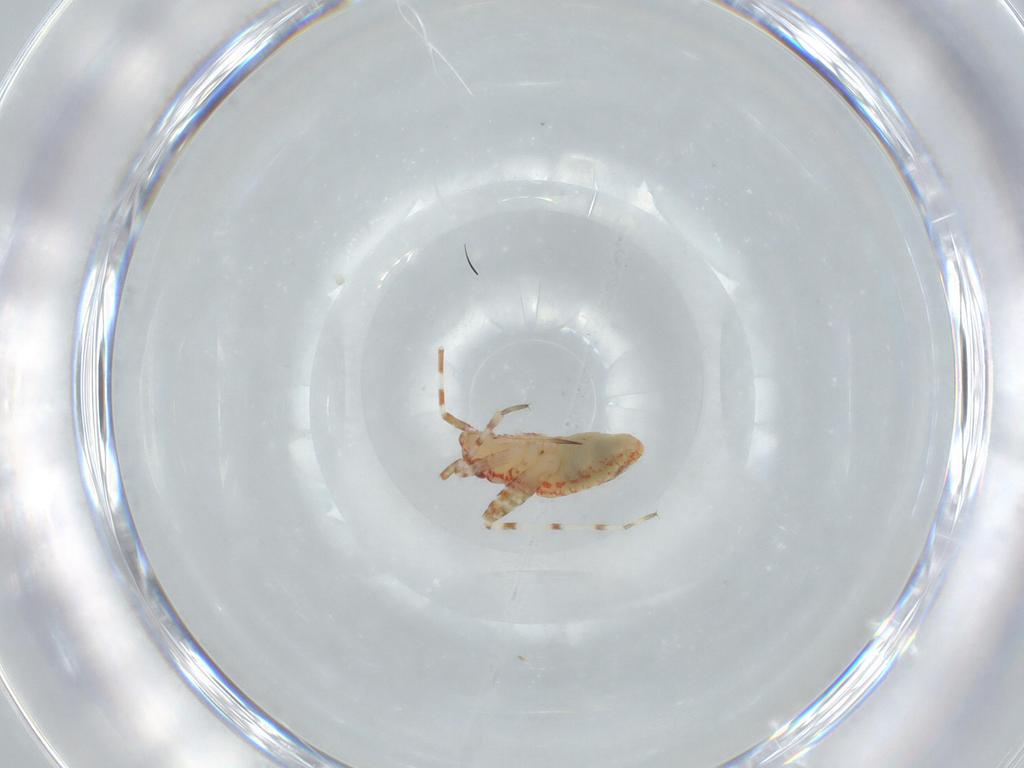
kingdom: Animalia
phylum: Arthropoda
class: Insecta
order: Hemiptera
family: Miridae
